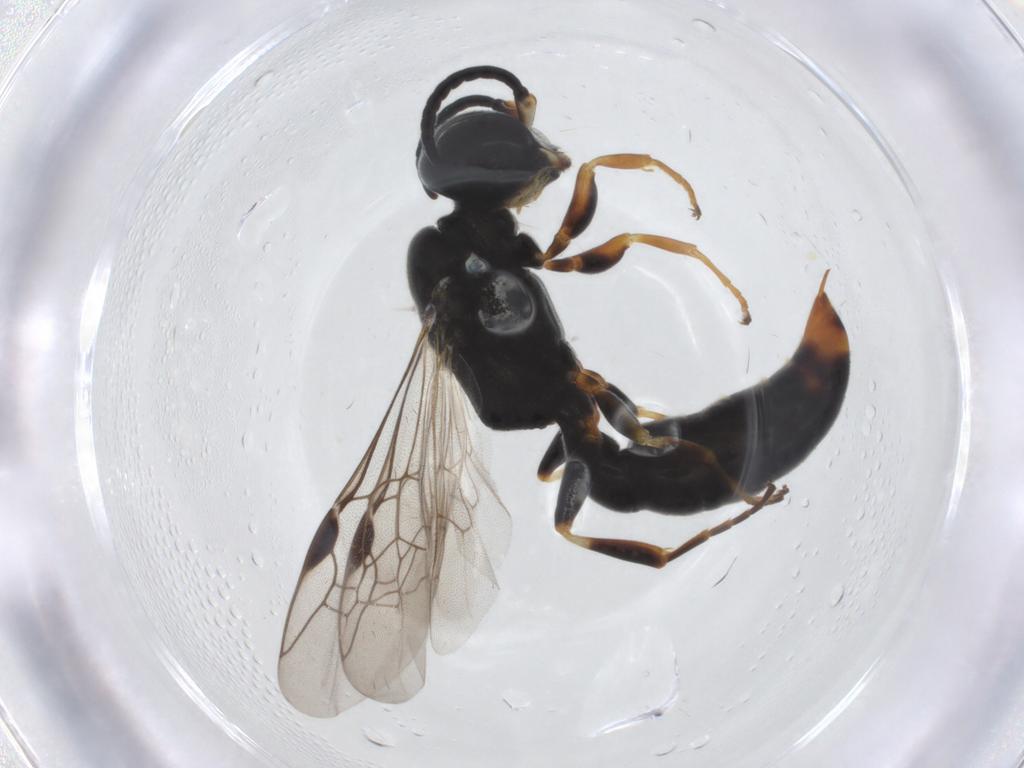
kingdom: Animalia
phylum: Arthropoda
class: Insecta
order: Hymenoptera
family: Pemphredonidae
